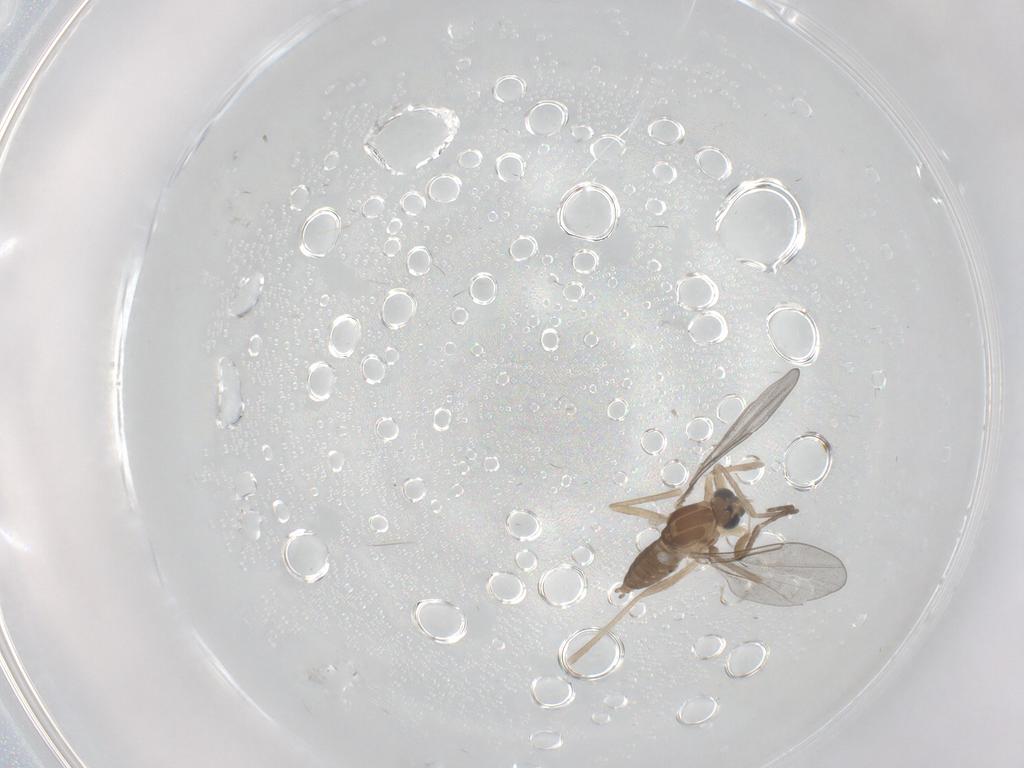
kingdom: Animalia
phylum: Arthropoda
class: Insecta
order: Diptera
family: Cecidomyiidae
